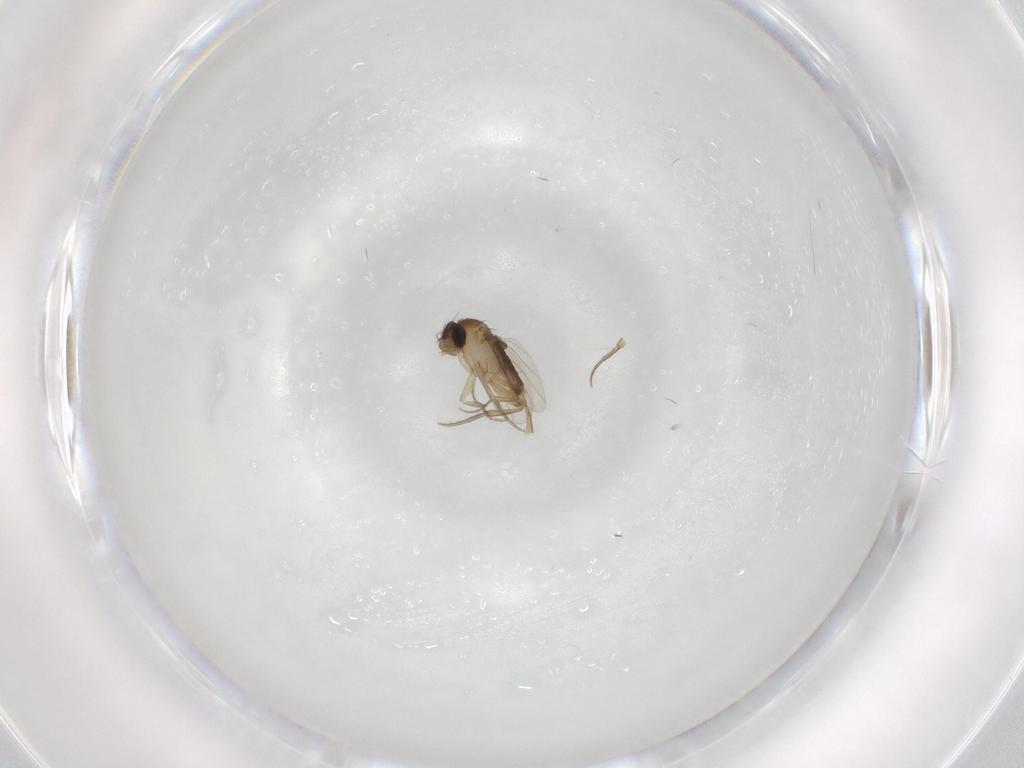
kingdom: Animalia
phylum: Arthropoda
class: Insecta
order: Diptera
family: Phoridae
